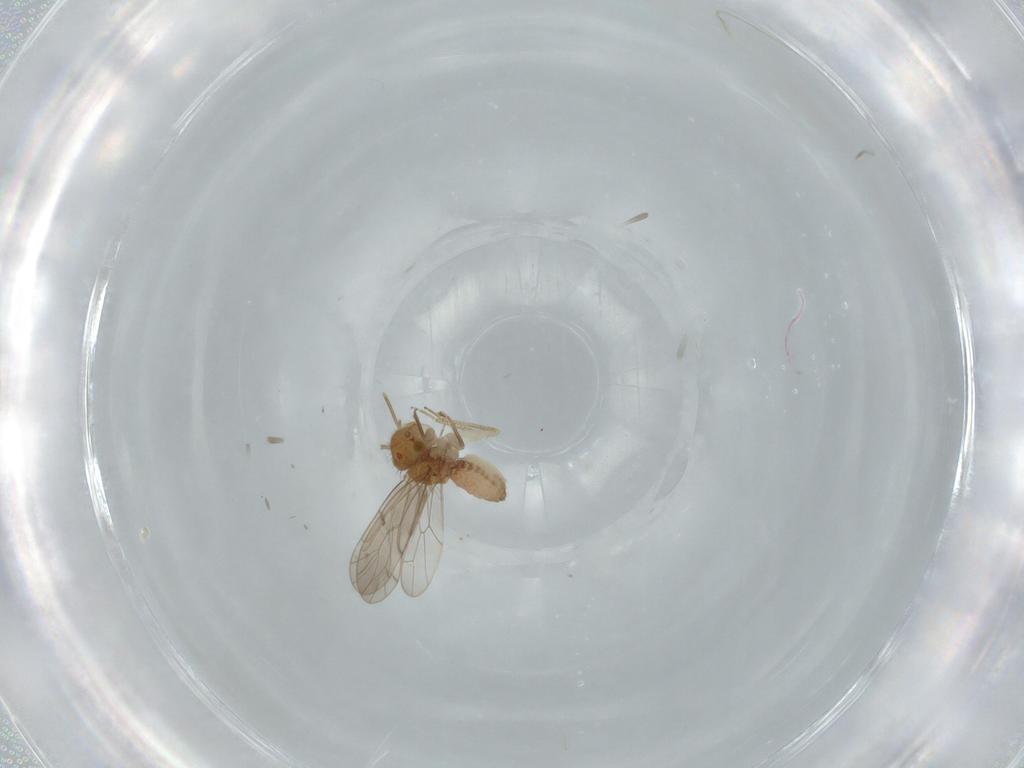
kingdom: Animalia
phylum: Arthropoda
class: Insecta
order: Psocodea
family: Ectopsocidae
